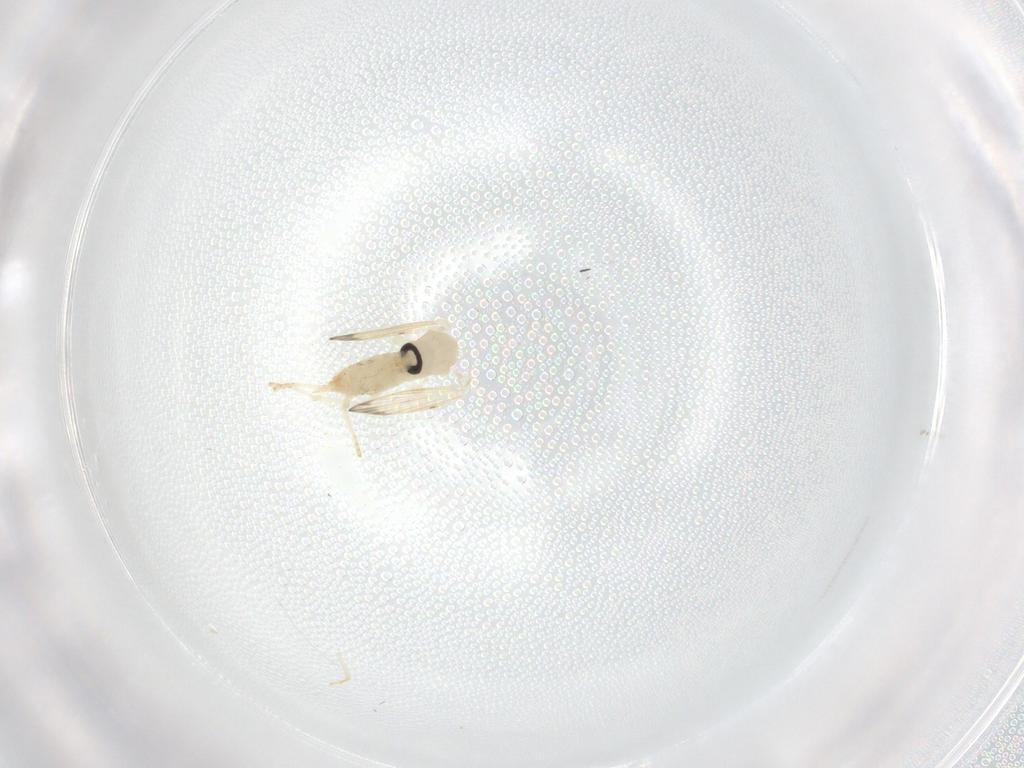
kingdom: Animalia
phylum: Arthropoda
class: Insecta
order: Diptera
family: Psychodidae
